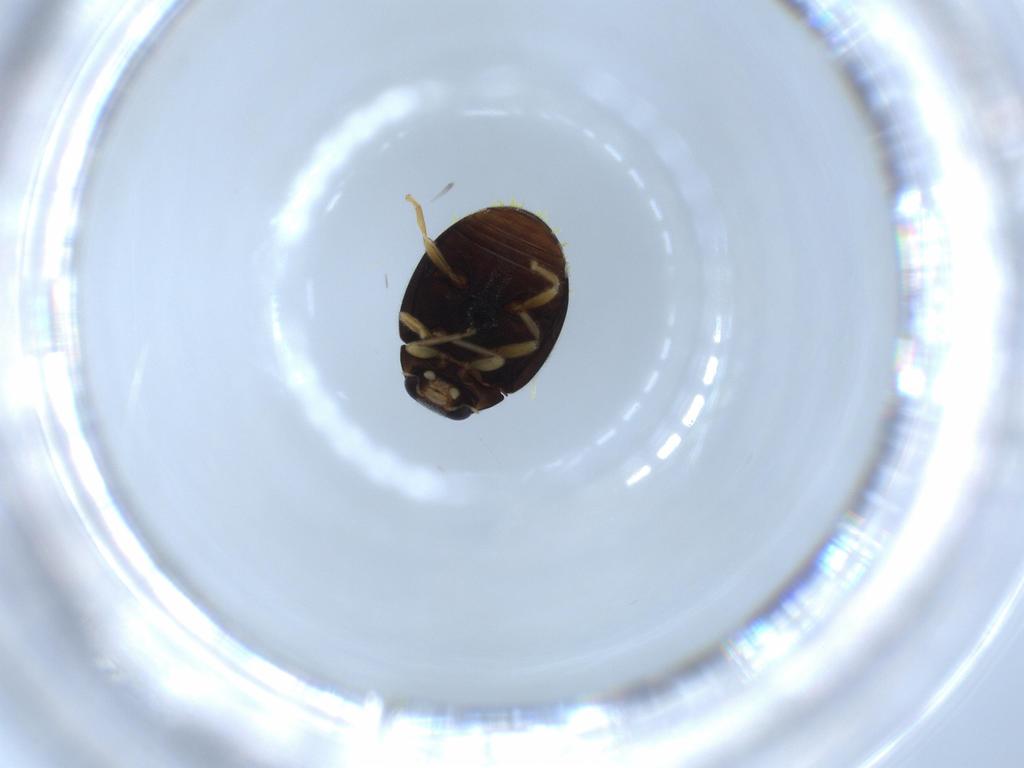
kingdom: Animalia
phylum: Arthropoda
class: Insecta
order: Coleoptera
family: Coccinellidae
